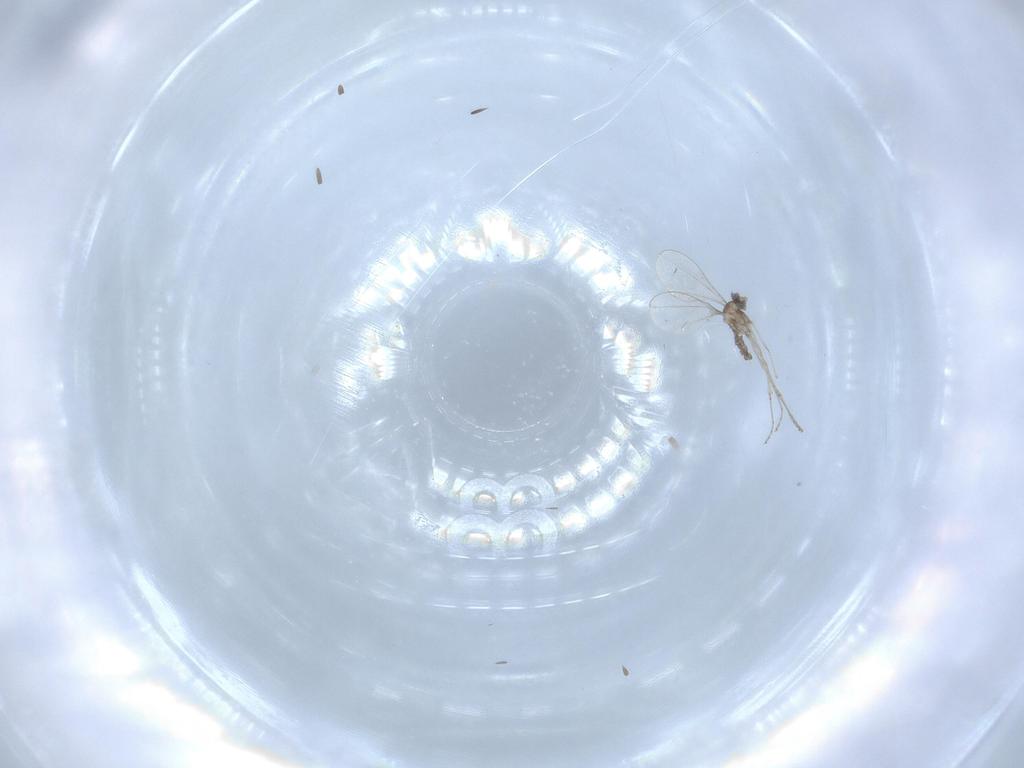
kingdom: Animalia
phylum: Arthropoda
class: Insecta
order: Diptera
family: Cecidomyiidae
